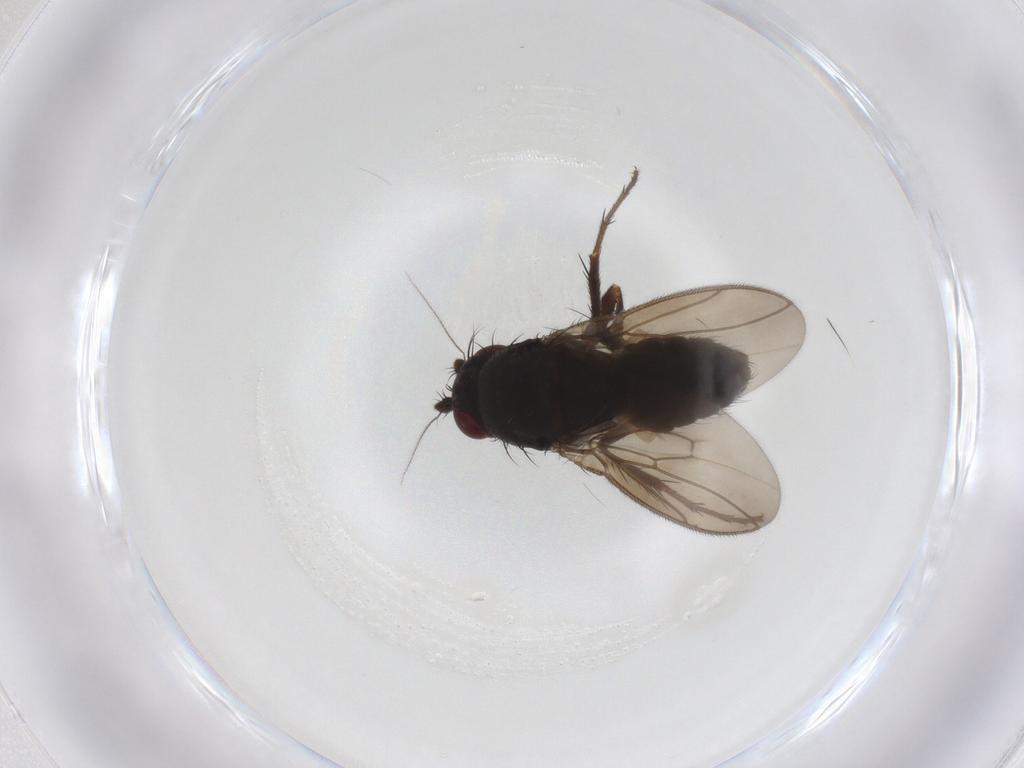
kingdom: Animalia
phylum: Arthropoda
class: Insecta
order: Diptera
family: Sphaeroceridae
